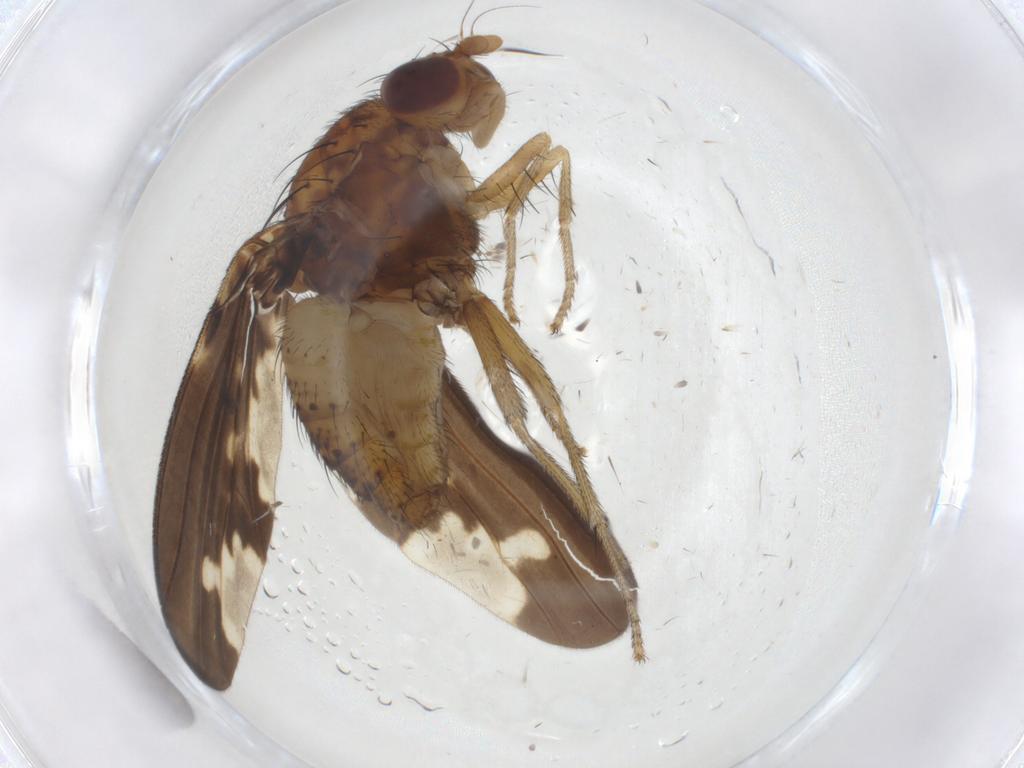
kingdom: Animalia
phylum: Arthropoda
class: Insecta
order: Diptera
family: Cecidomyiidae
